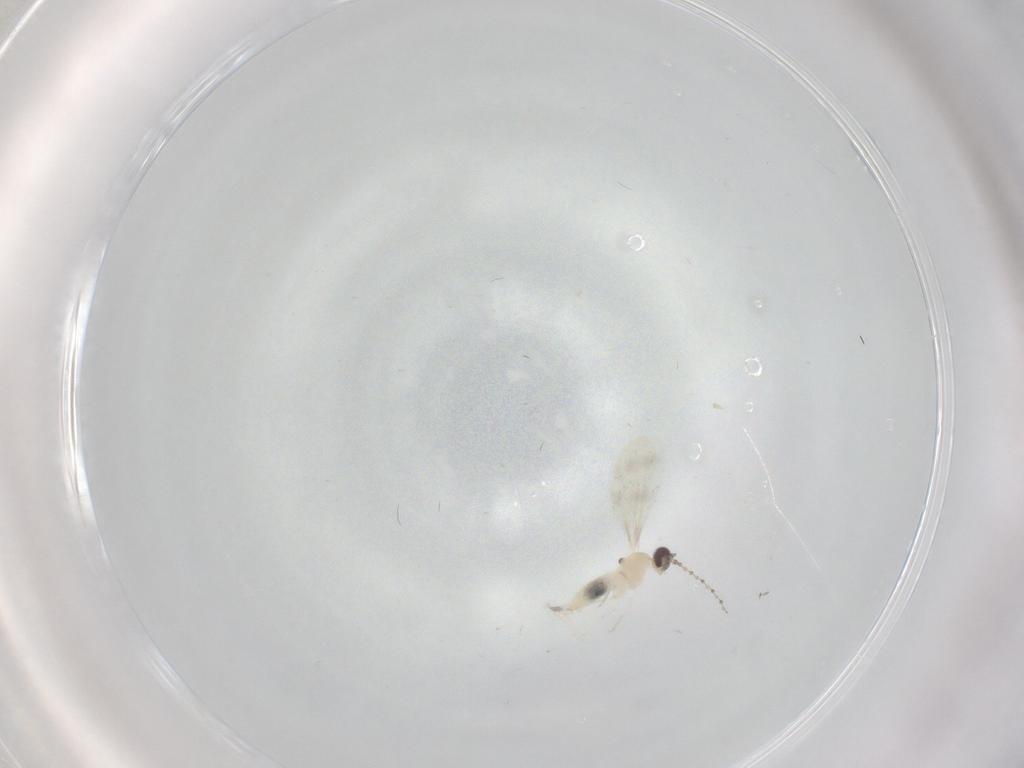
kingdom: Animalia
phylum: Arthropoda
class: Insecta
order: Diptera
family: Cecidomyiidae
